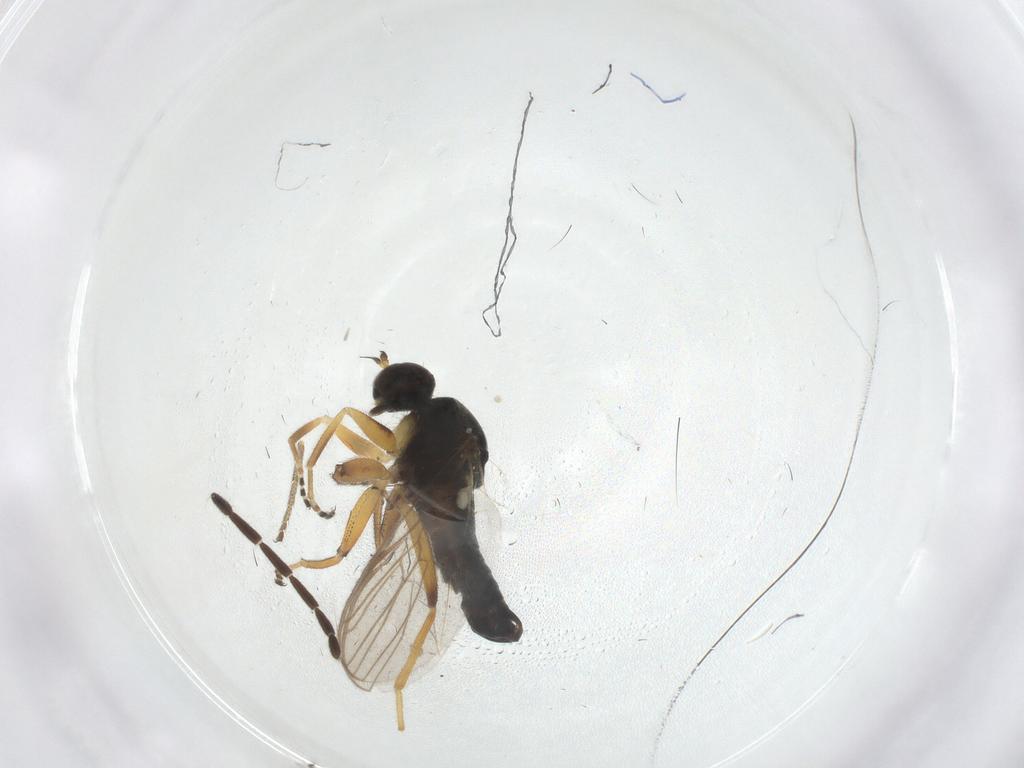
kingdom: Animalia
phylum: Arthropoda
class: Insecta
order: Diptera
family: Hybotidae
